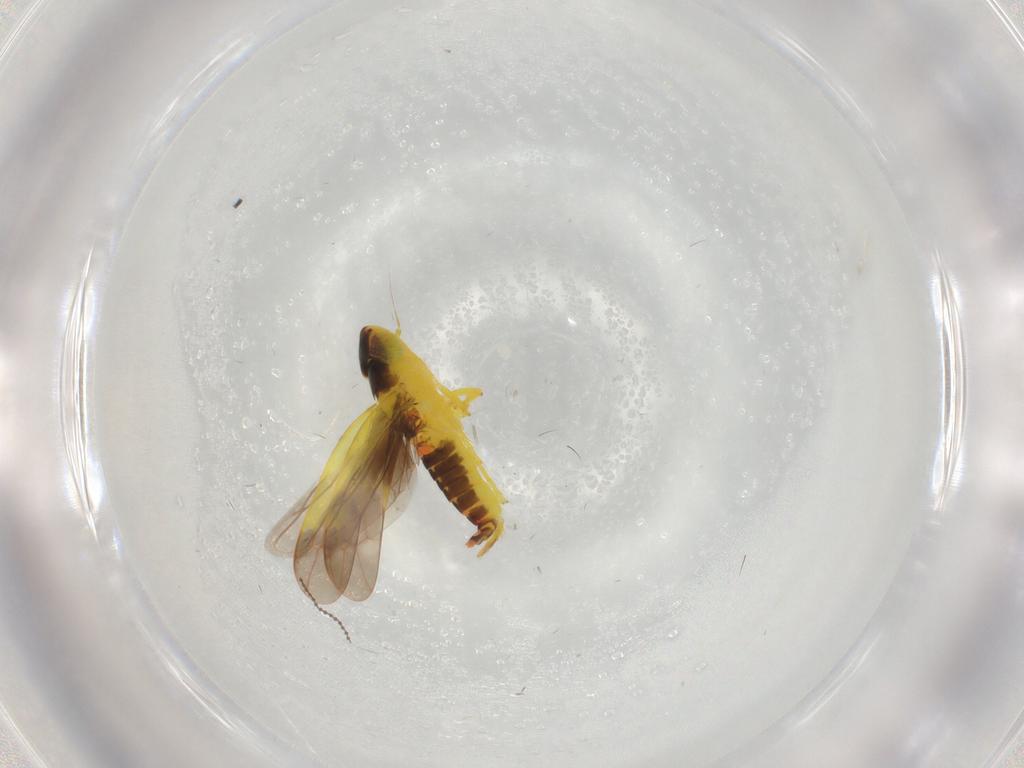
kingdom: Animalia
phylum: Arthropoda
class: Insecta
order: Hemiptera
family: Cicadellidae
